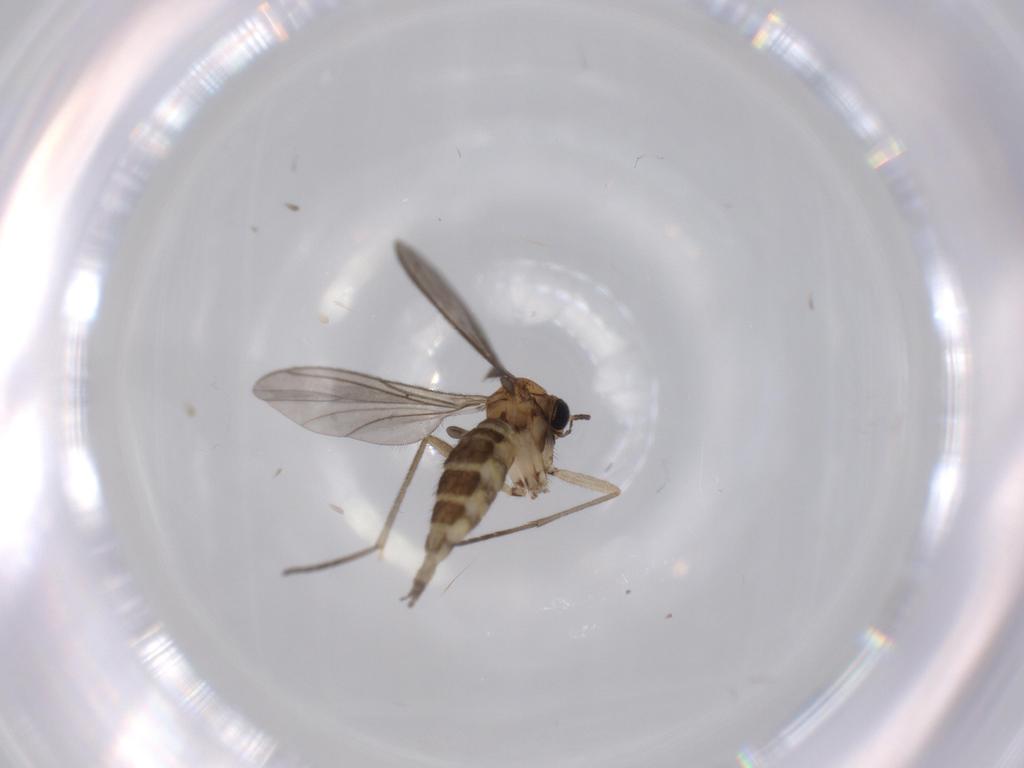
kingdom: Animalia
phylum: Arthropoda
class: Insecta
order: Diptera
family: Sciaridae
